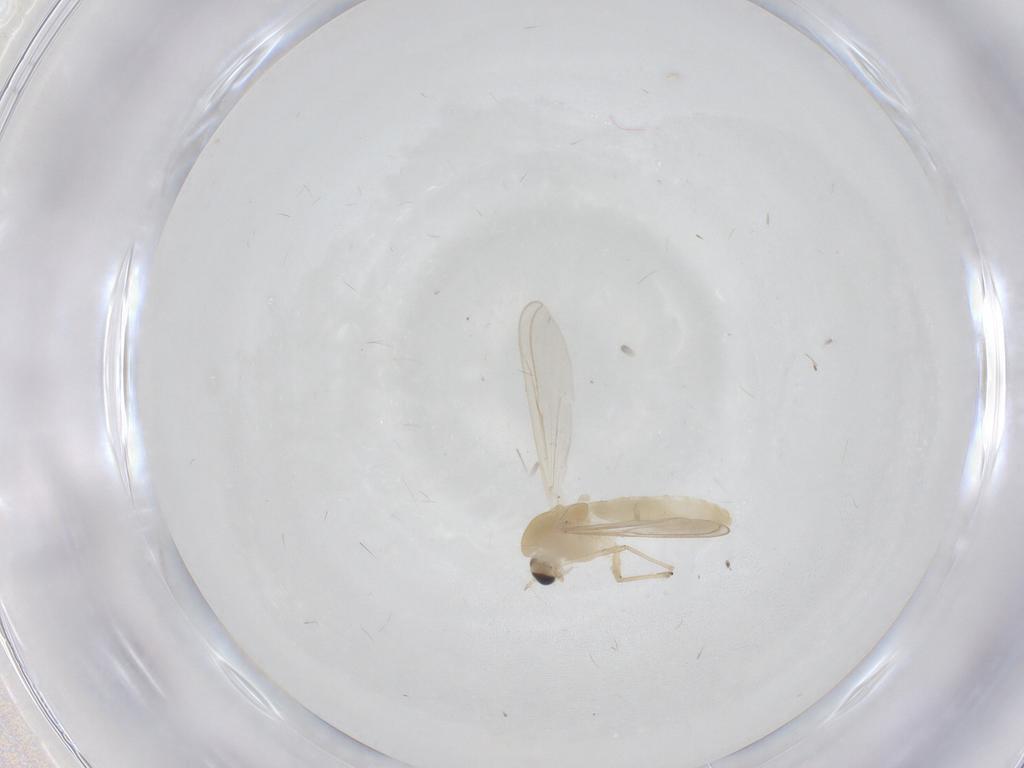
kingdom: Animalia
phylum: Arthropoda
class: Insecta
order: Diptera
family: Chironomidae
